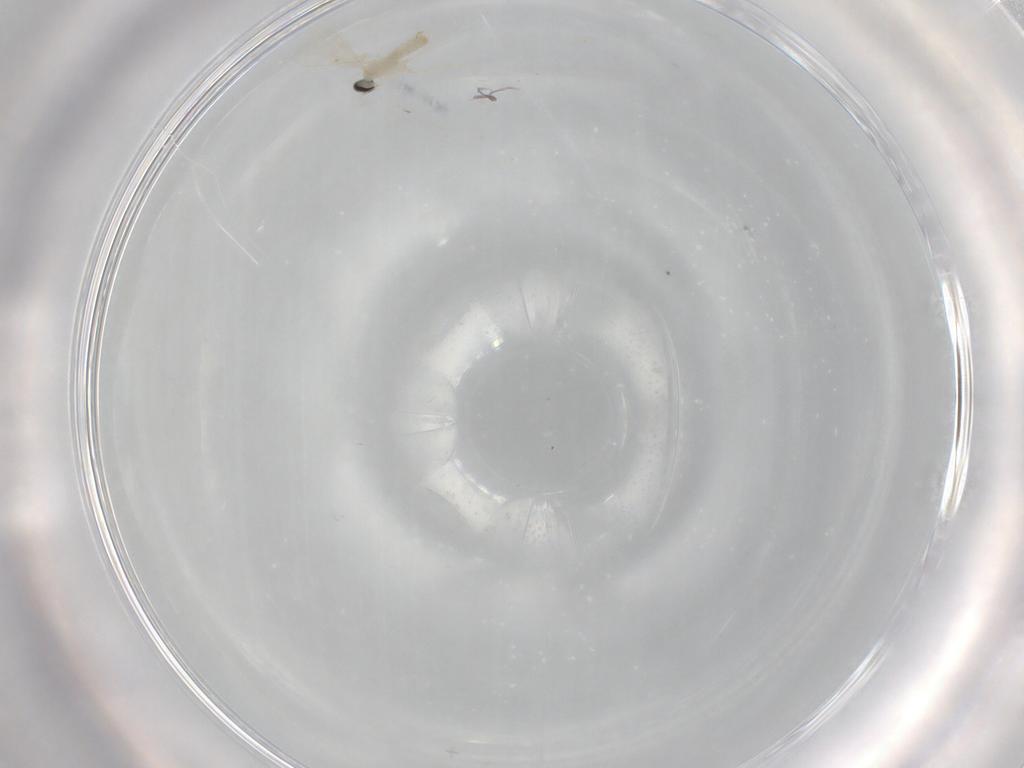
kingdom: Animalia
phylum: Arthropoda
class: Insecta
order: Diptera
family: Cecidomyiidae
